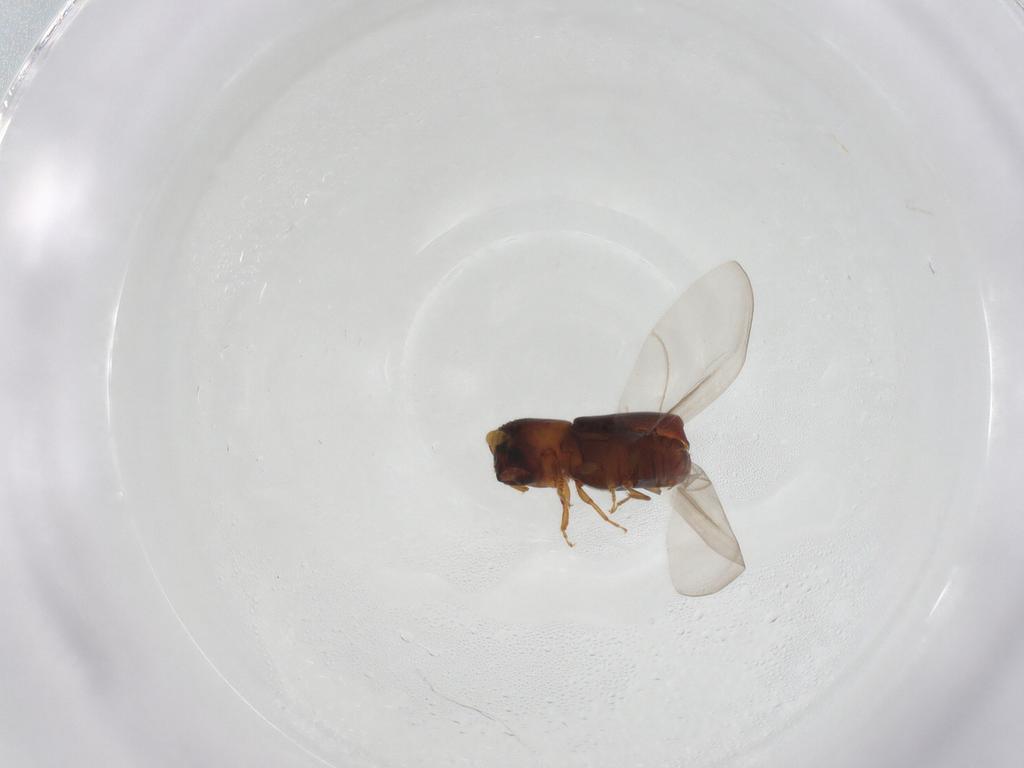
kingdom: Animalia
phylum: Arthropoda
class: Insecta
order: Coleoptera
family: Curculionidae
